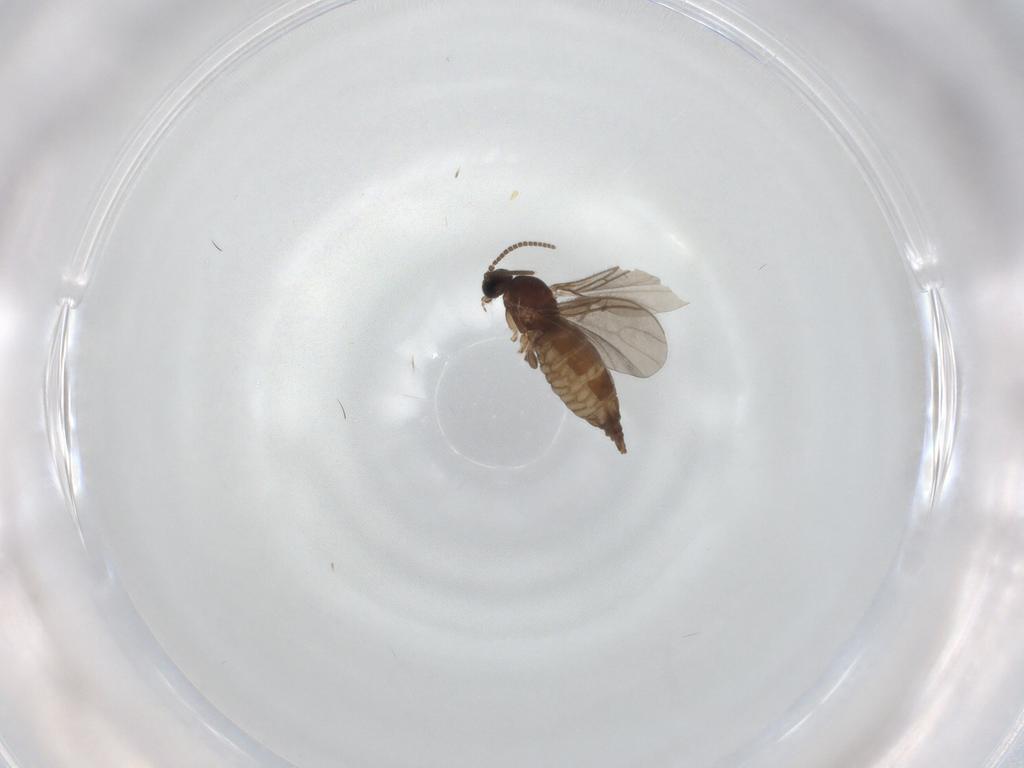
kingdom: Animalia
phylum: Arthropoda
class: Insecta
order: Diptera
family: Sciaridae
